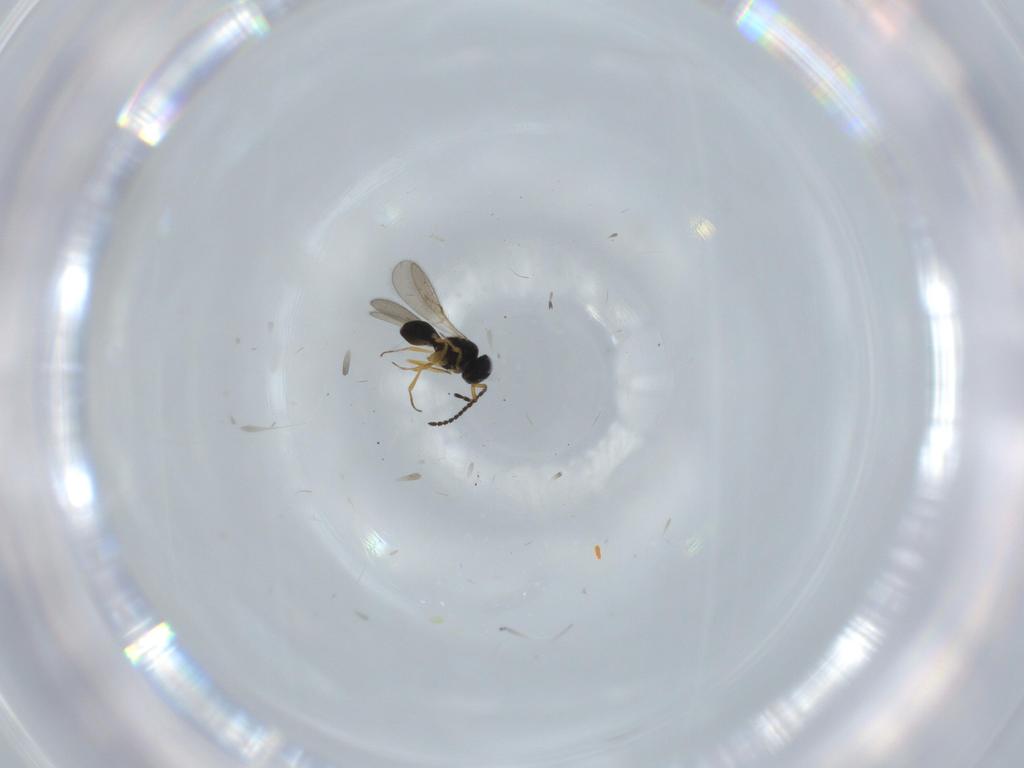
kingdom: Animalia
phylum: Arthropoda
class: Insecta
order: Hymenoptera
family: Scelionidae
